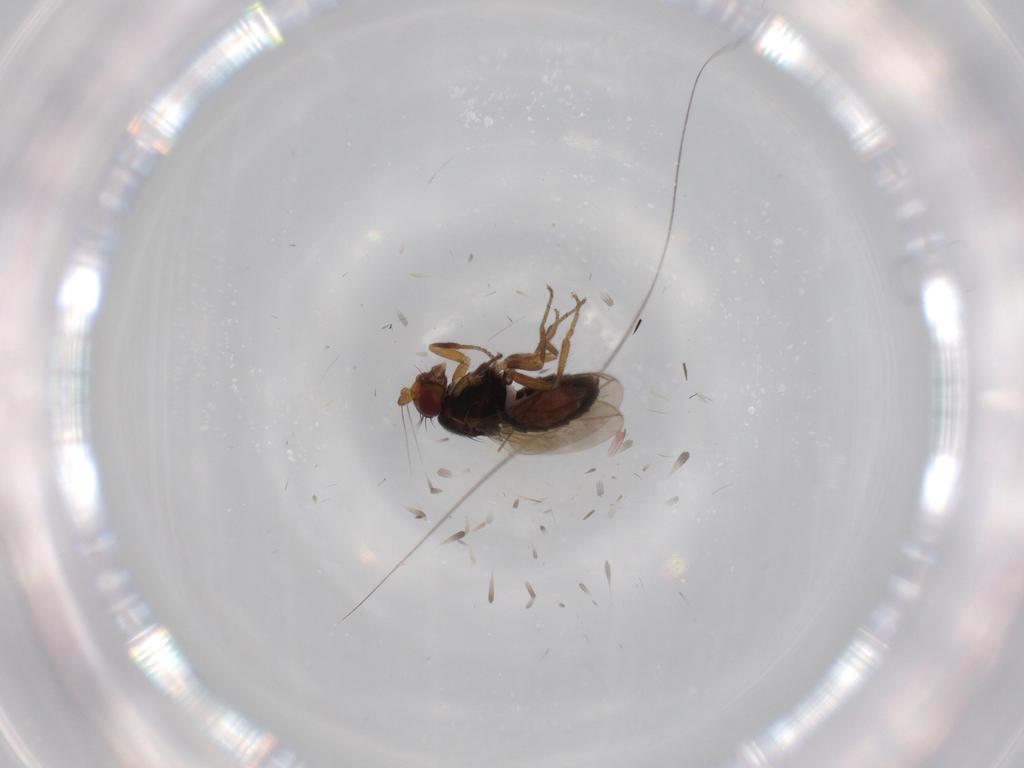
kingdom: Animalia
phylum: Arthropoda
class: Insecta
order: Diptera
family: Sphaeroceridae
